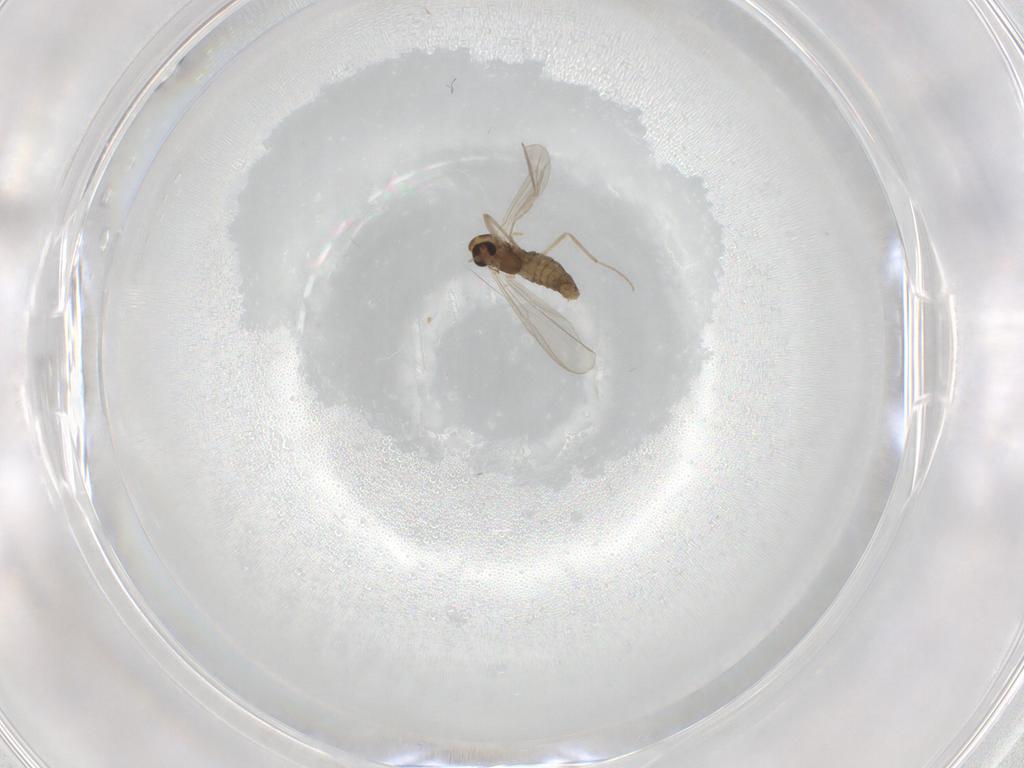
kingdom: Animalia
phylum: Arthropoda
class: Insecta
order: Diptera
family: Chironomidae
